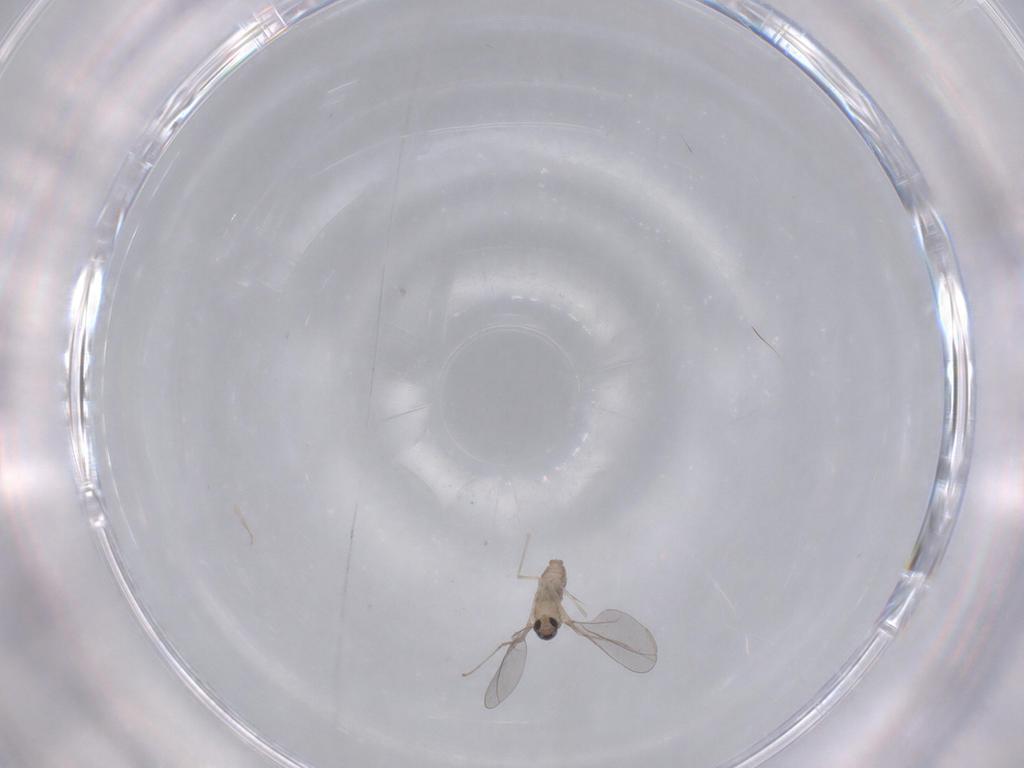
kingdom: Animalia
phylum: Arthropoda
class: Insecta
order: Diptera
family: Cecidomyiidae
